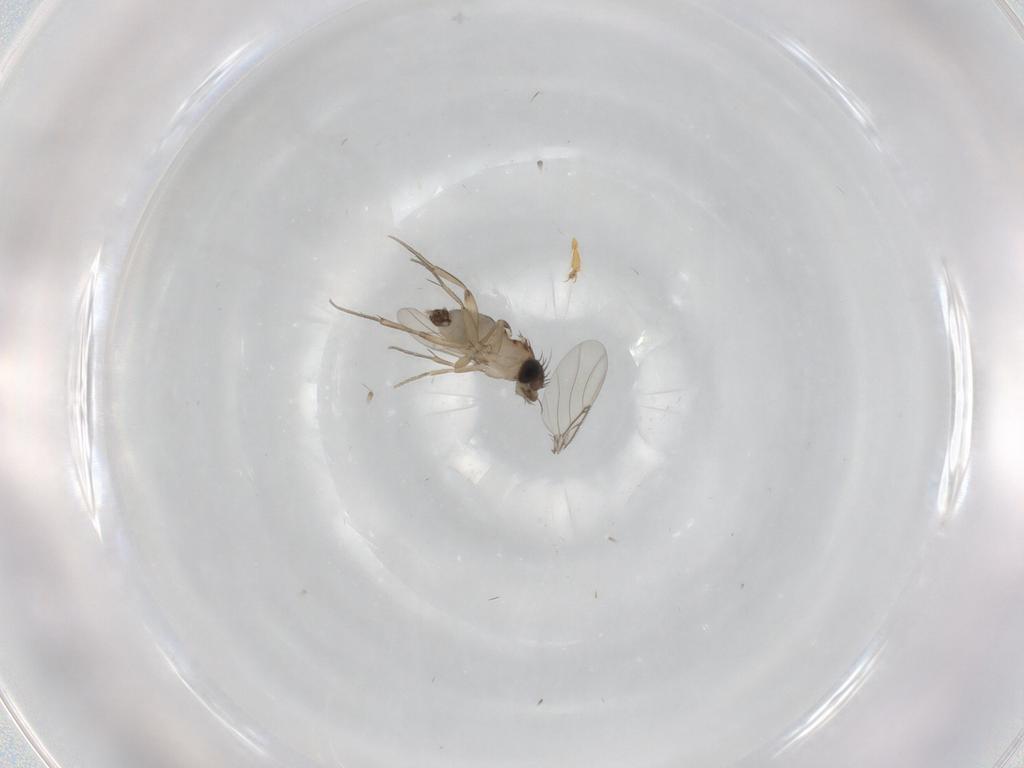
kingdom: Animalia
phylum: Arthropoda
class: Insecta
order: Diptera
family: Phoridae
